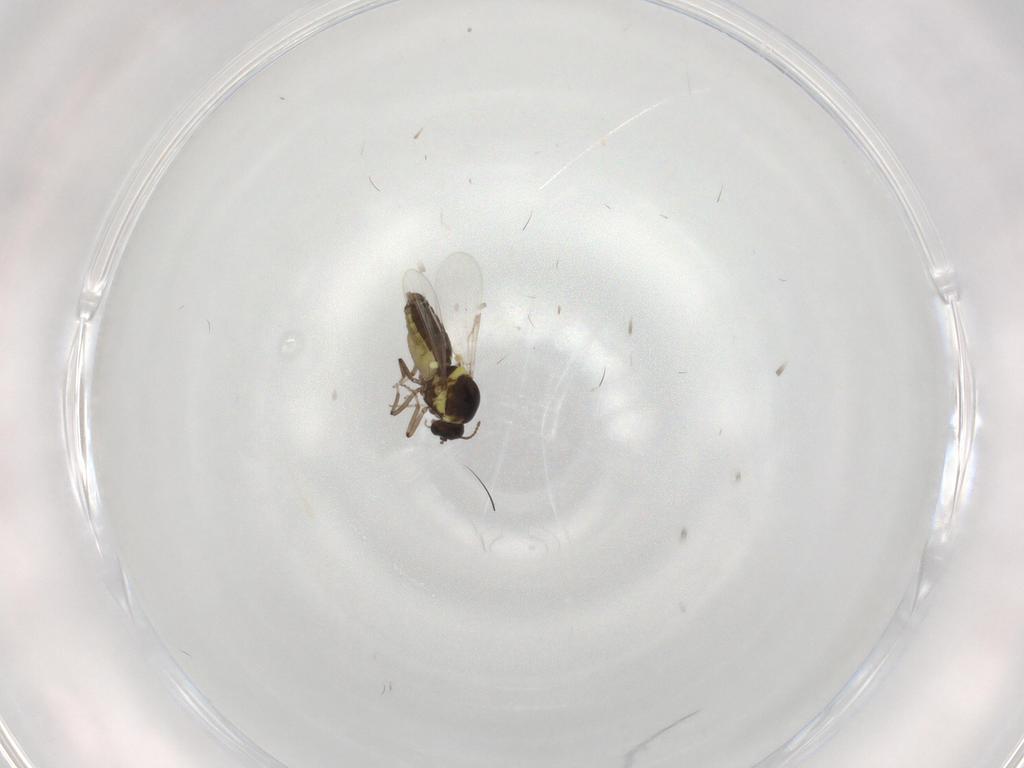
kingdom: Animalia
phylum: Arthropoda
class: Insecta
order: Diptera
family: Ceratopogonidae
